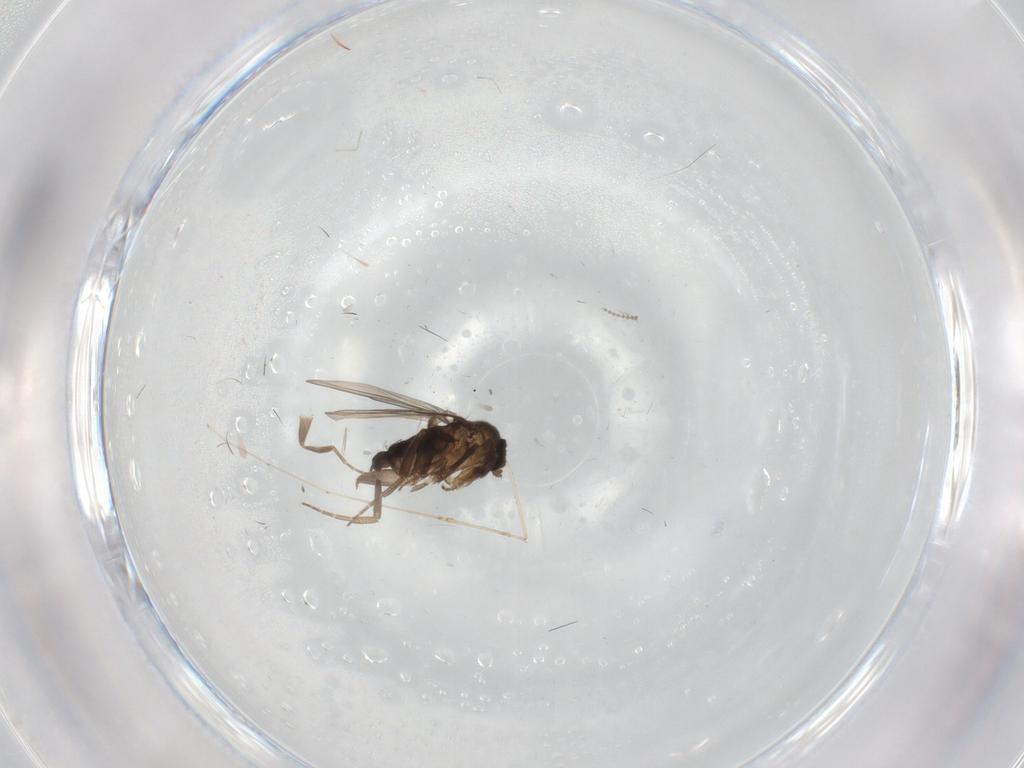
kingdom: Animalia
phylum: Arthropoda
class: Insecta
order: Diptera
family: Phoridae
